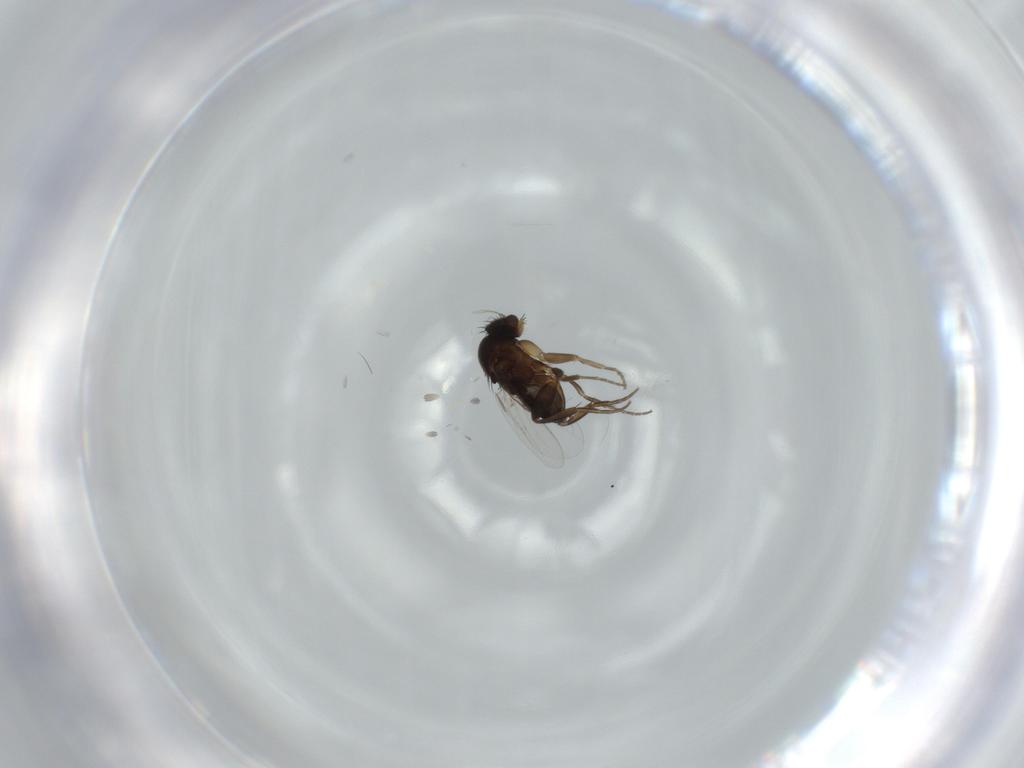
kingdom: Animalia
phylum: Arthropoda
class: Insecta
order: Diptera
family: Phoridae
